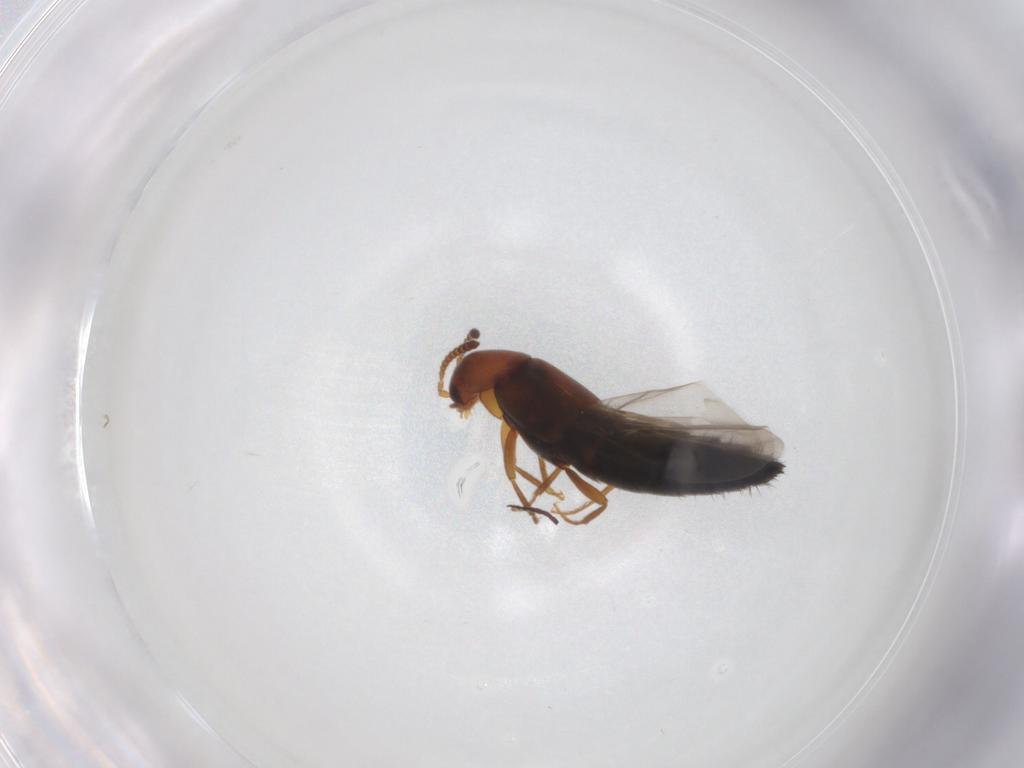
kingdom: Animalia
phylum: Arthropoda
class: Insecta
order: Coleoptera
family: Staphylinidae
